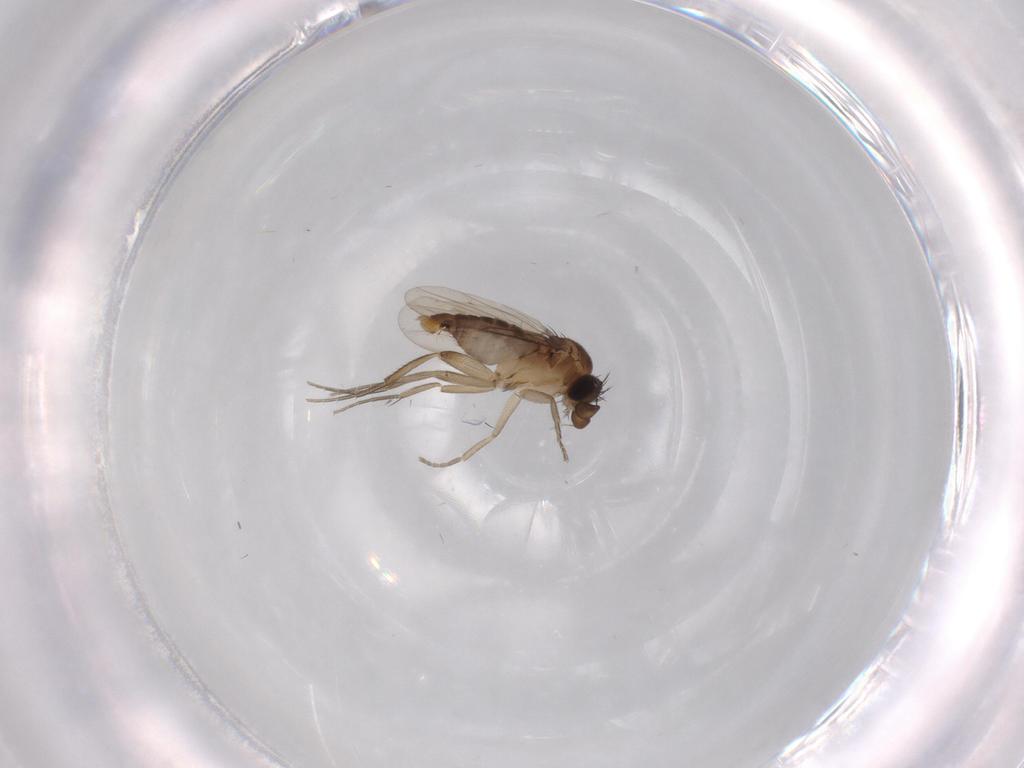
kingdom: Animalia
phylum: Arthropoda
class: Insecta
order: Diptera
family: Phoridae
